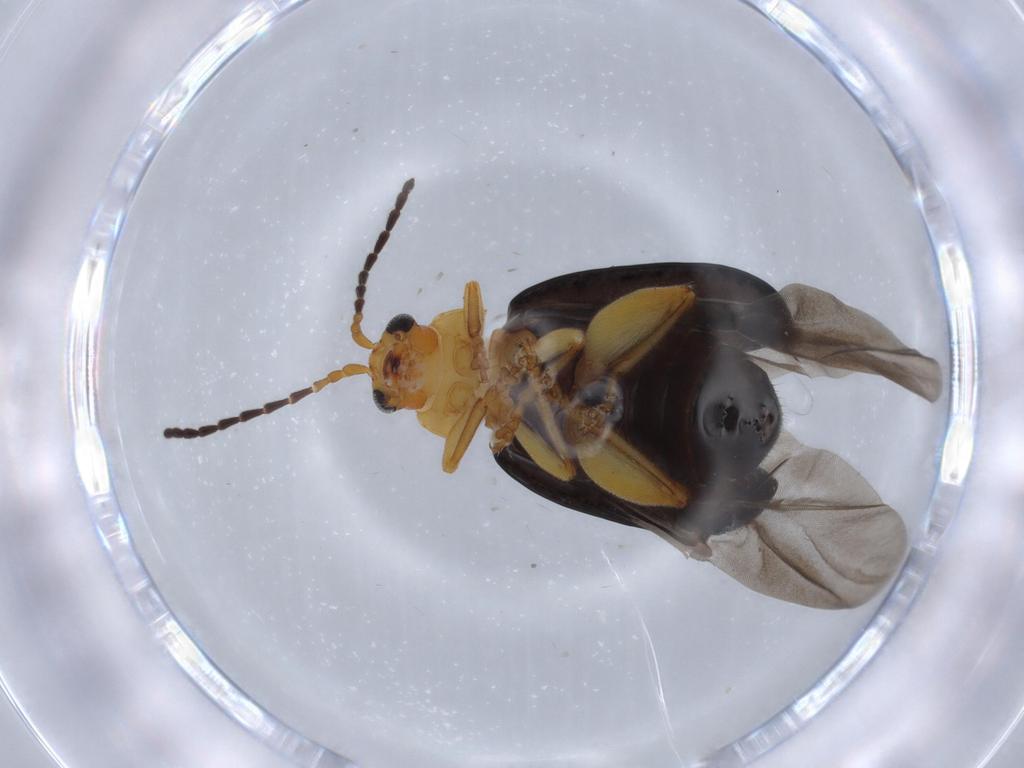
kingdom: Animalia
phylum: Arthropoda
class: Insecta
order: Coleoptera
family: Chrysomelidae
